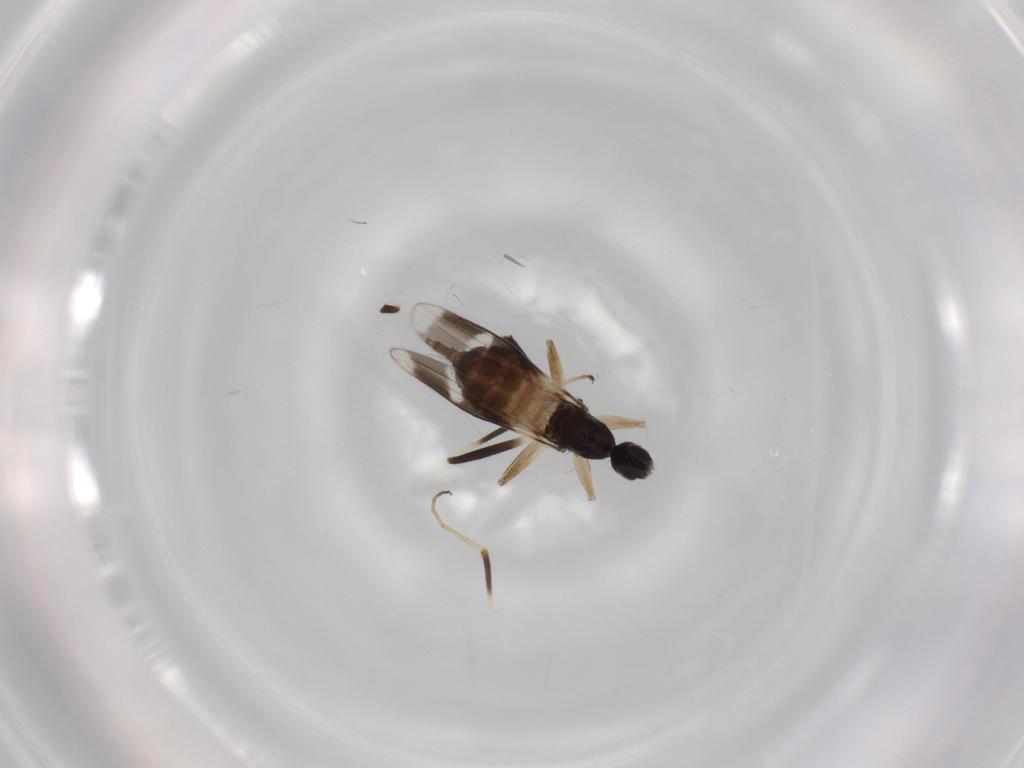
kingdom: Animalia
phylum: Arthropoda
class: Insecta
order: Diptera
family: Hybotidae
